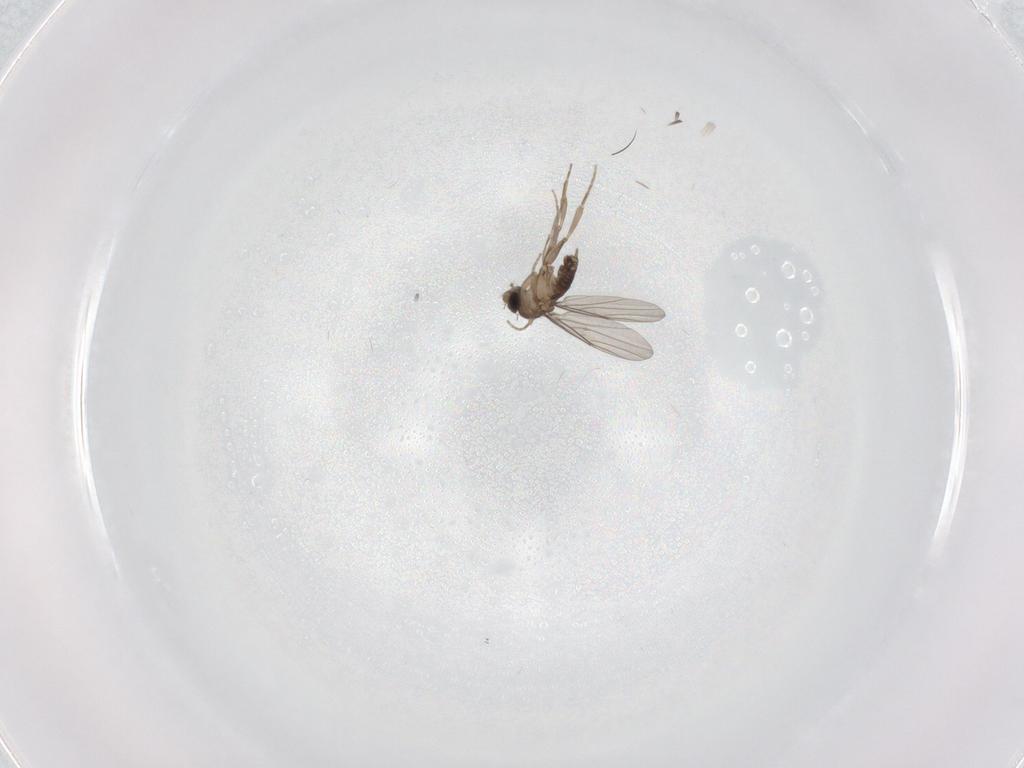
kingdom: Animalia
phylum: Arthropoda
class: Insecta
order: Diptera
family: Phoridae
